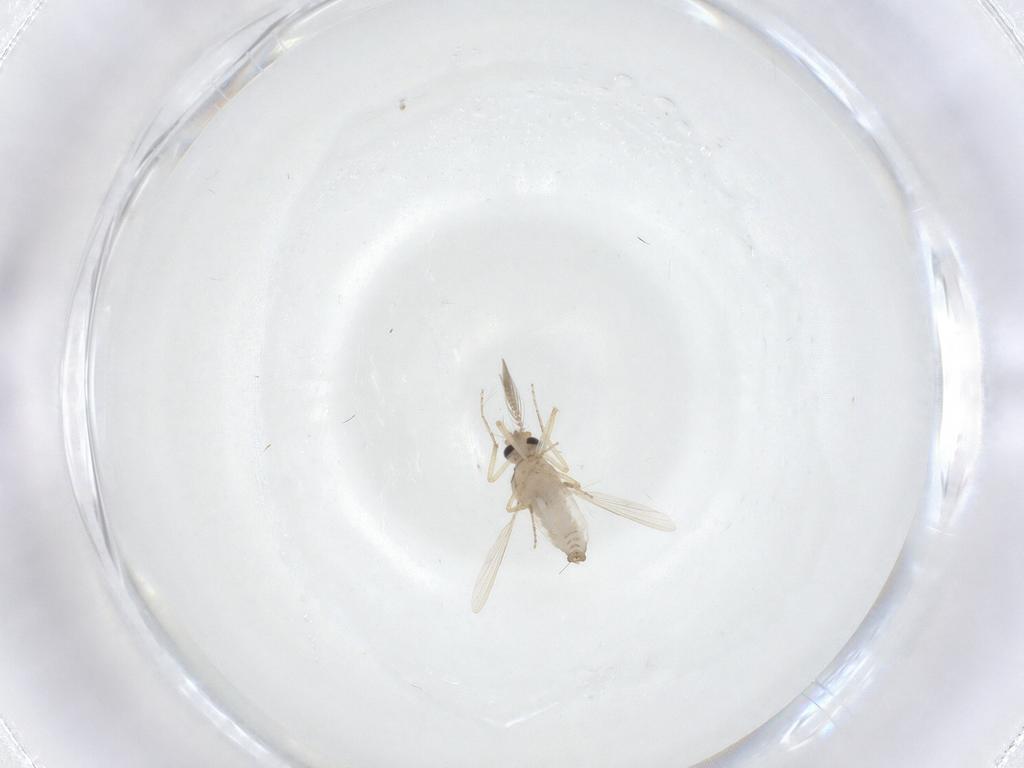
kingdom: Animalia
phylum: Arthropoda
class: Insecta
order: Diptera
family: Ceratopogonidae
